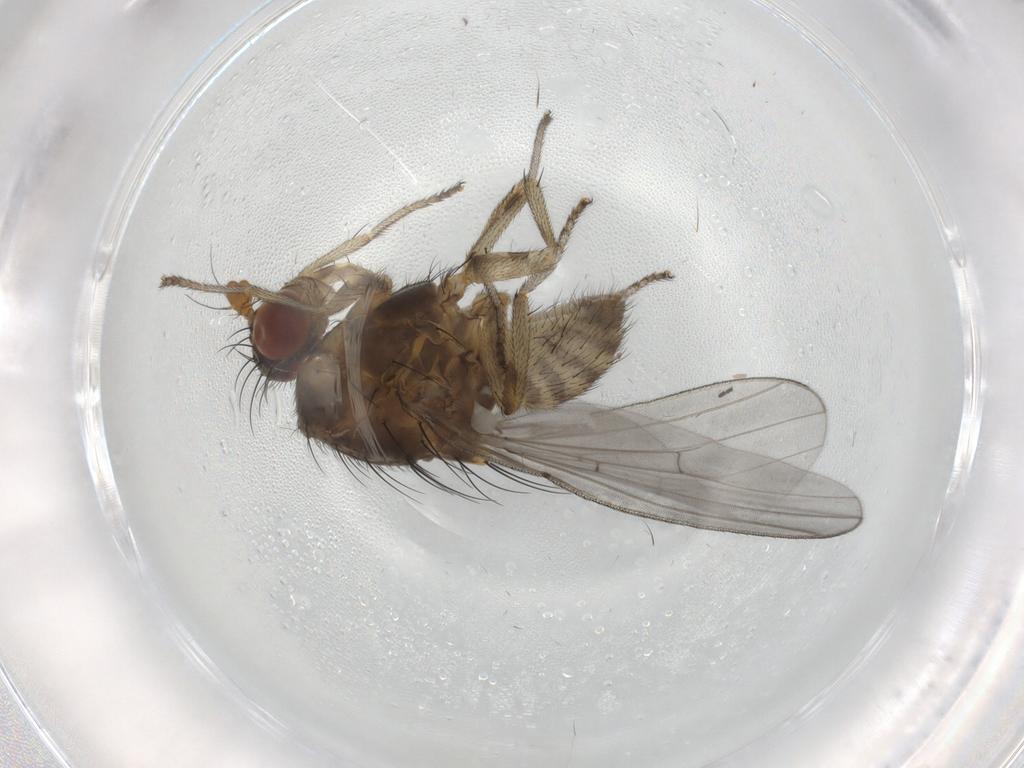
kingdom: Animalia
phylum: Arthropoda
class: Insecta
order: Diptera
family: Lauxaniidae
